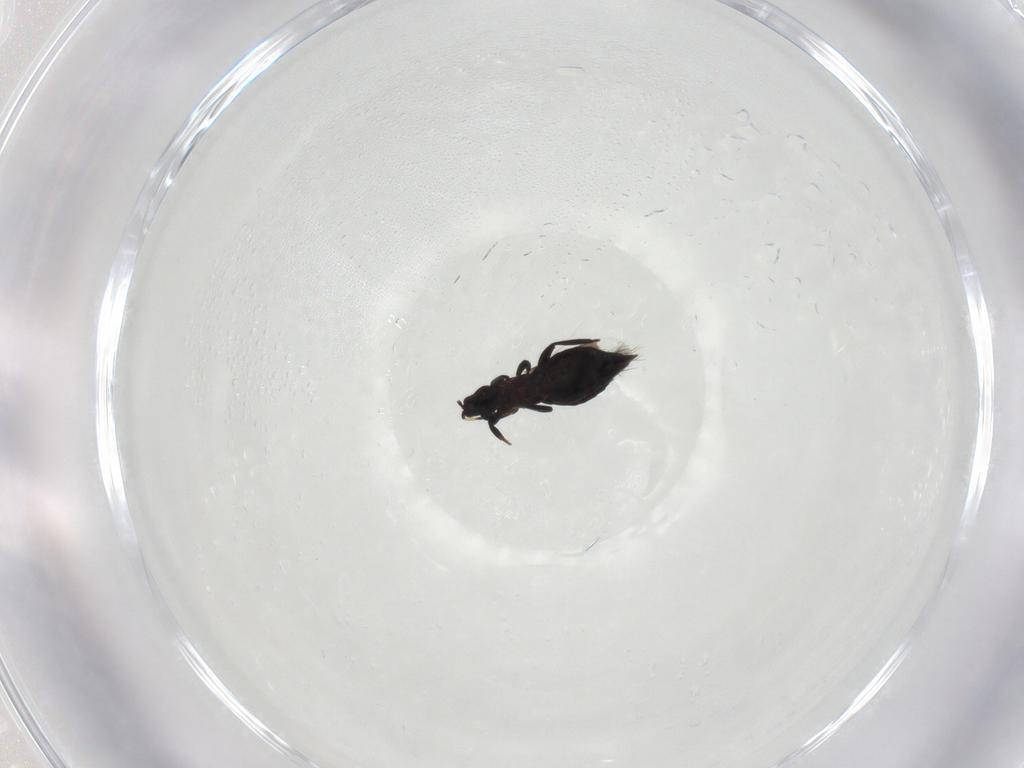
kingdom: Animalia
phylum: Arthropoda
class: Insecta
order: Thysanoptera
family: Aeolothripidae
